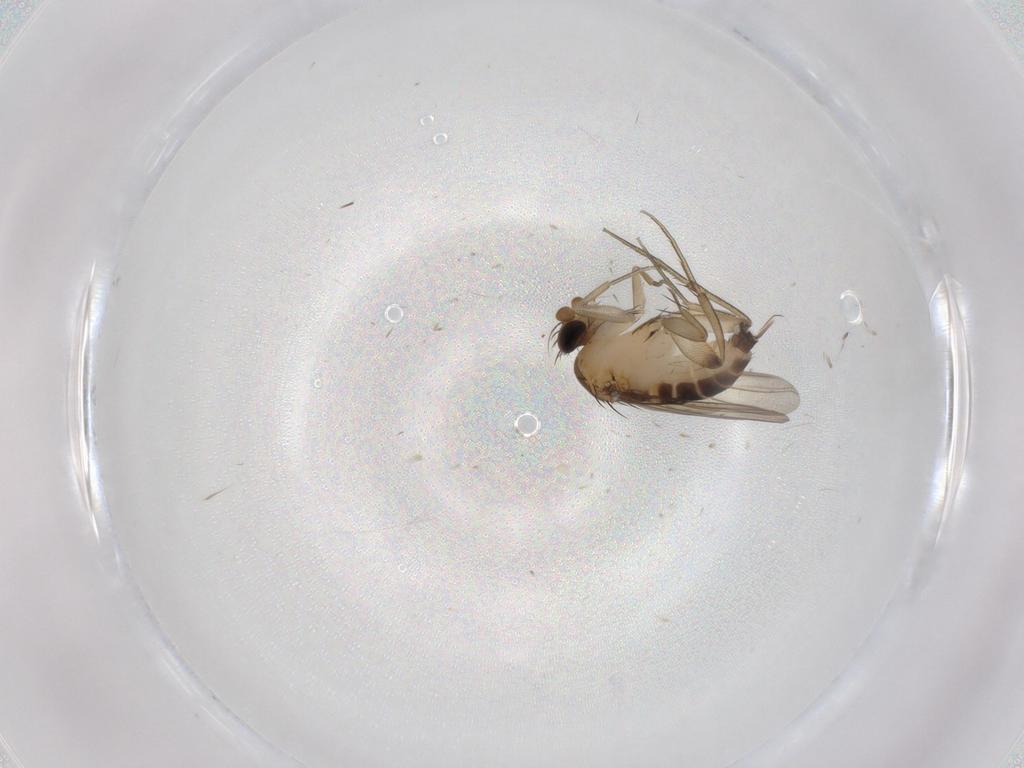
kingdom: Animalia
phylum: Arthropoda
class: Insecta
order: Diptera
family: Phoridae
